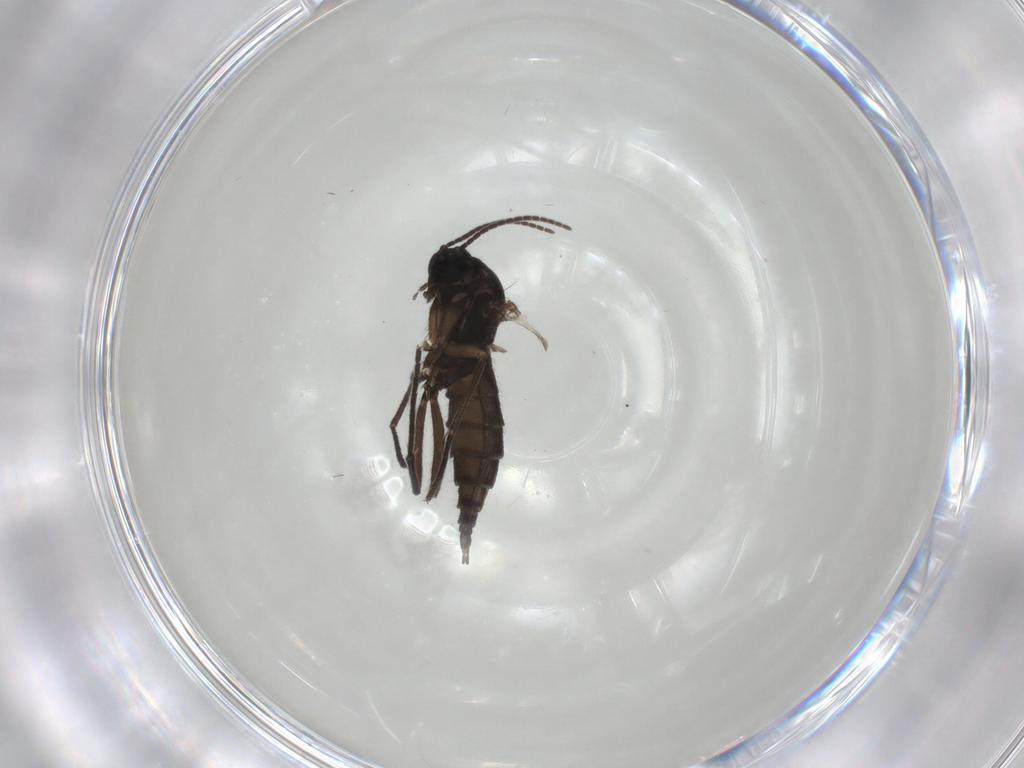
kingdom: Animalia
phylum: Arthropoda
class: Insecta
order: Diptera
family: Sciaridae
